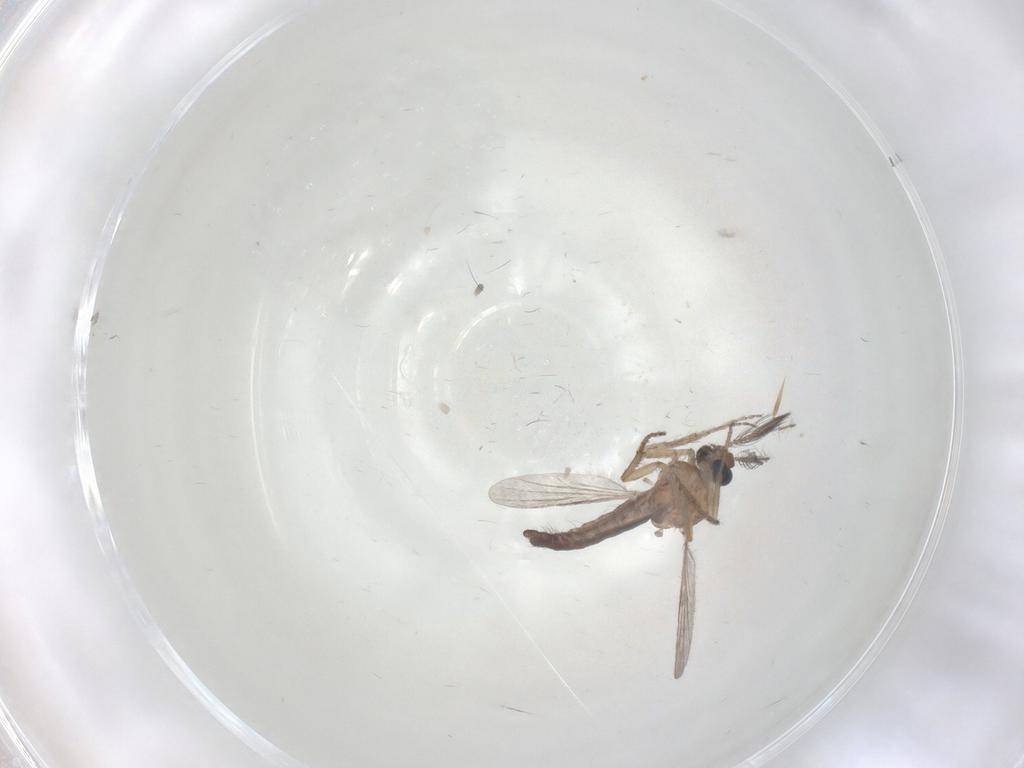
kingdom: Animalia
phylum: Arthropoda
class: Insecta
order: Diptera
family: Ceratopogonidae
